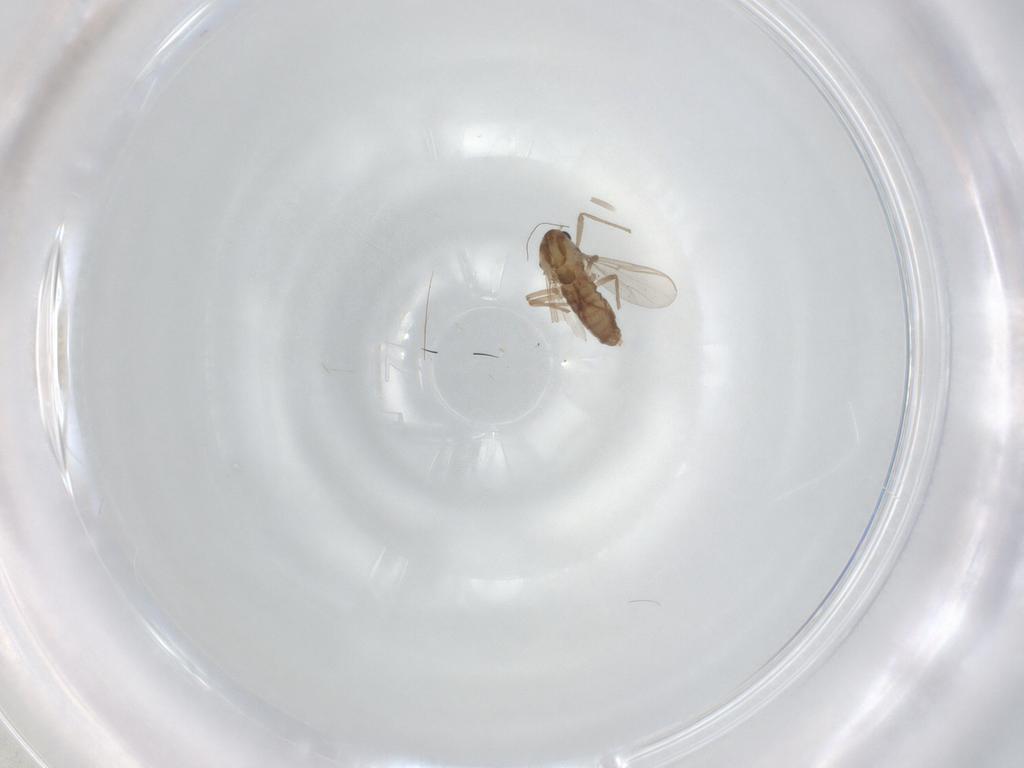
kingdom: Animalia
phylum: Arthropoda
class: Insecta
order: Diptera
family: Chironomidae
